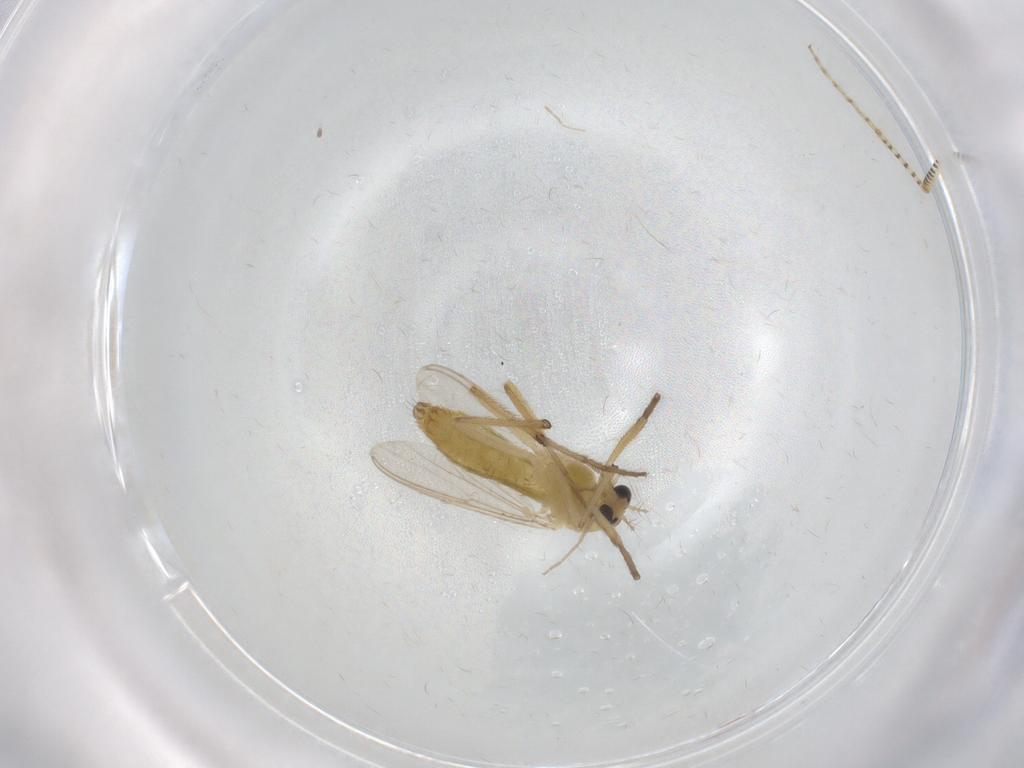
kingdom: Animalia
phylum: Arthropoda
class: Insecta
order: Diptera
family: Chironomidae
